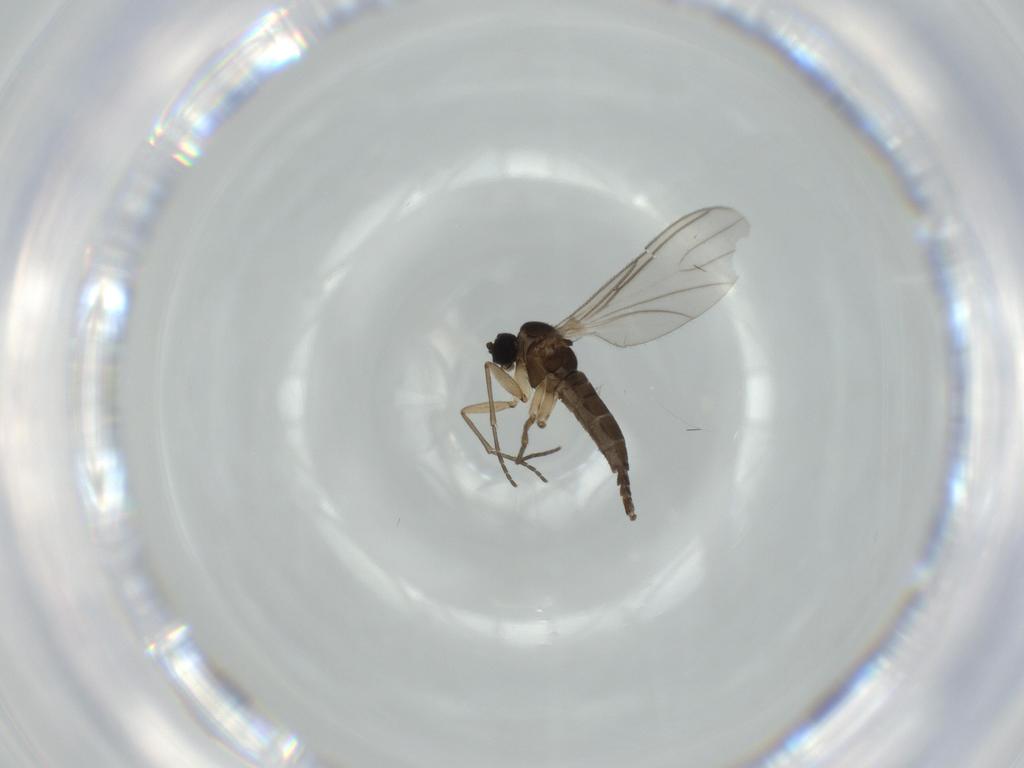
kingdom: Animalia
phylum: Arthropoda
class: Insecta
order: Diptera
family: Sciaridae
